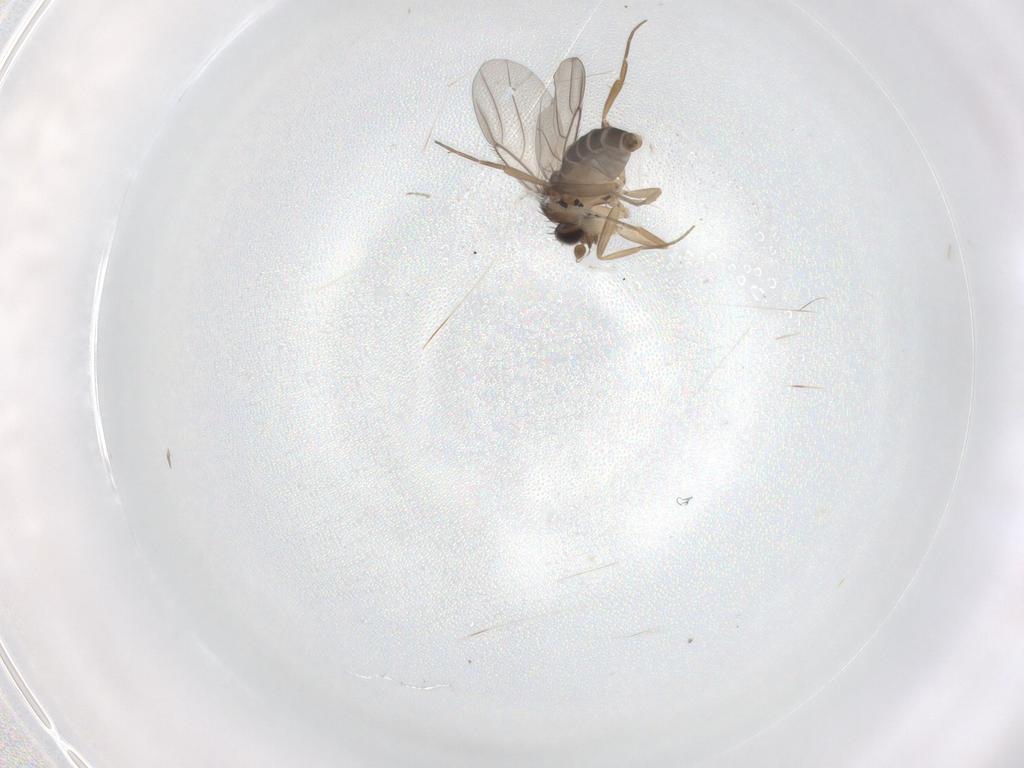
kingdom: Animalia
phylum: Arthropoda
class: Insecta
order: Diptera
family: Phoridae
